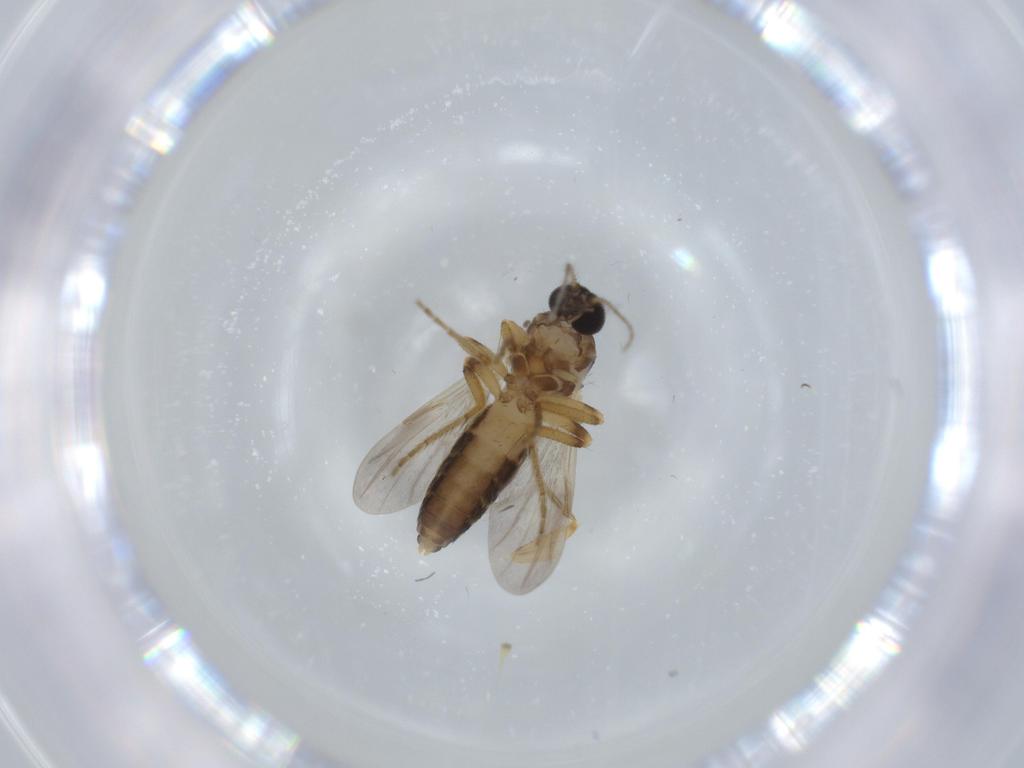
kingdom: Animalia
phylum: Arthropoda
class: Insecta
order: Diptera
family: Ceratopogonidae
